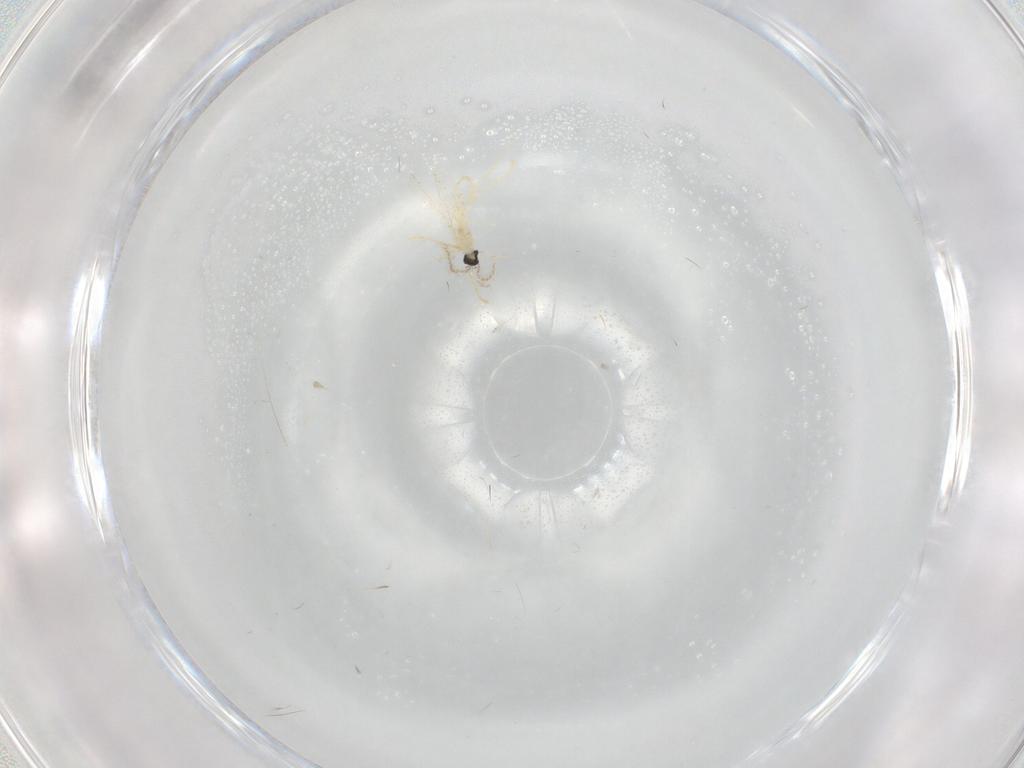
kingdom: Animalia
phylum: Arthropoda
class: Insecta
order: Diptera
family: Cecidomyiidae
